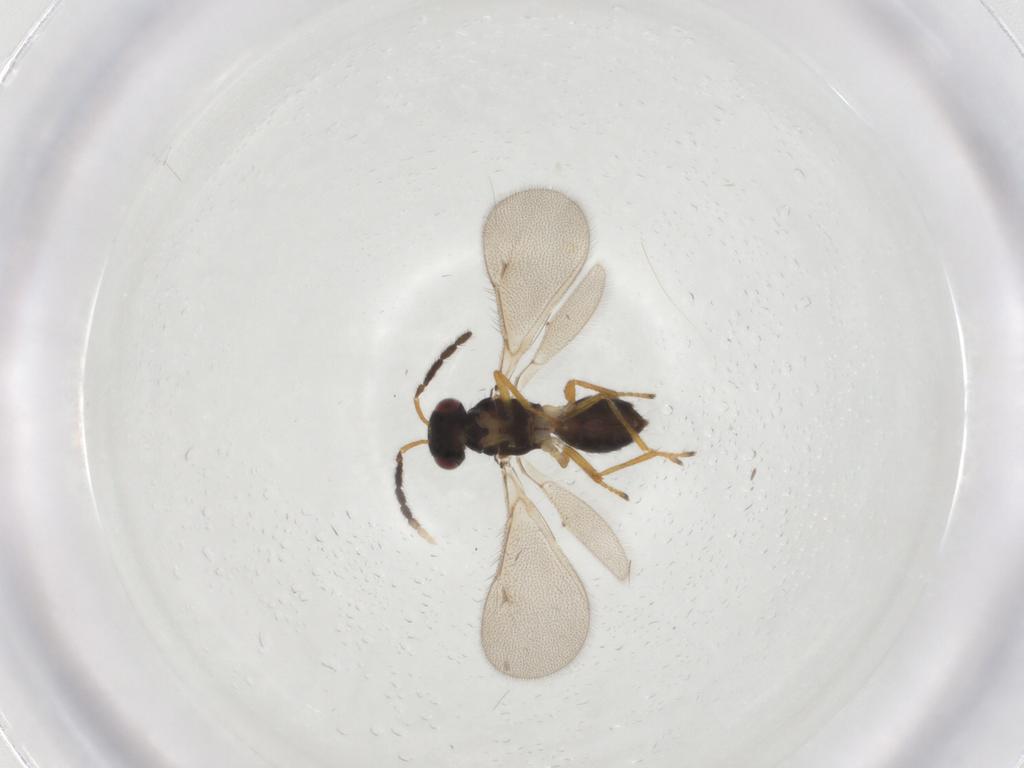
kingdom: Animalia
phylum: Arthropoda
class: Insecta
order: Hymenoptera
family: Eulophidae
